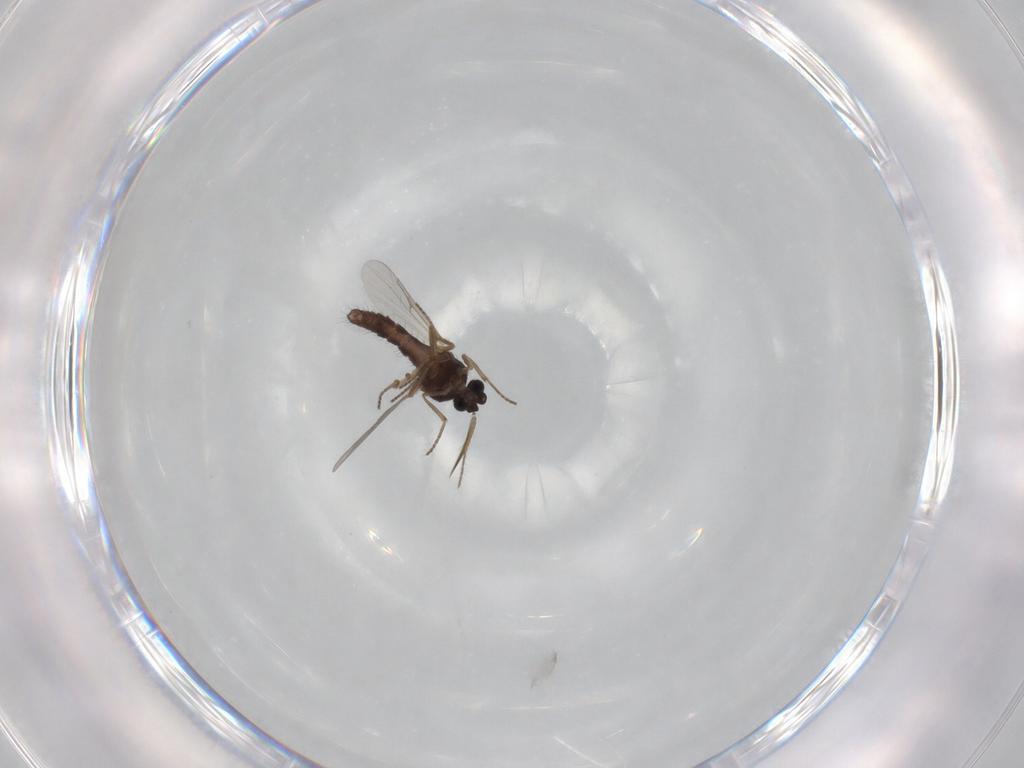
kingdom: Animalia
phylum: Arthropoda
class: Insecta
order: Diptera
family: Ceratopogonidae
